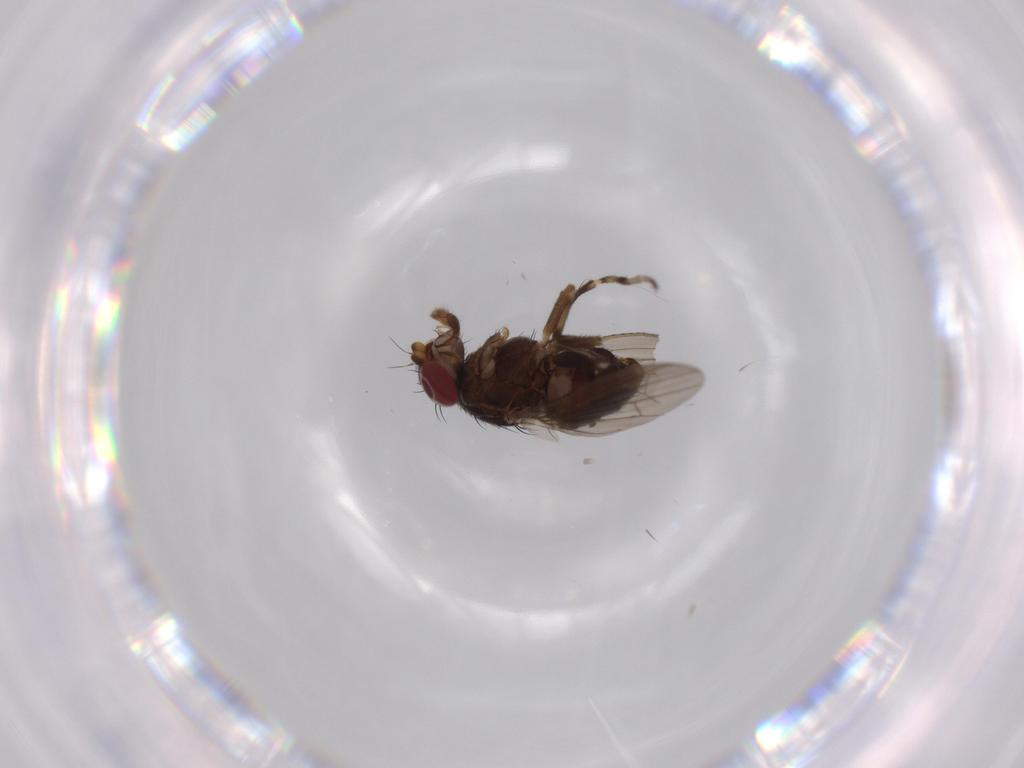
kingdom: Animalia
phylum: Arthropoda
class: Insecta
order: Diptera
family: Heleomyzidae
